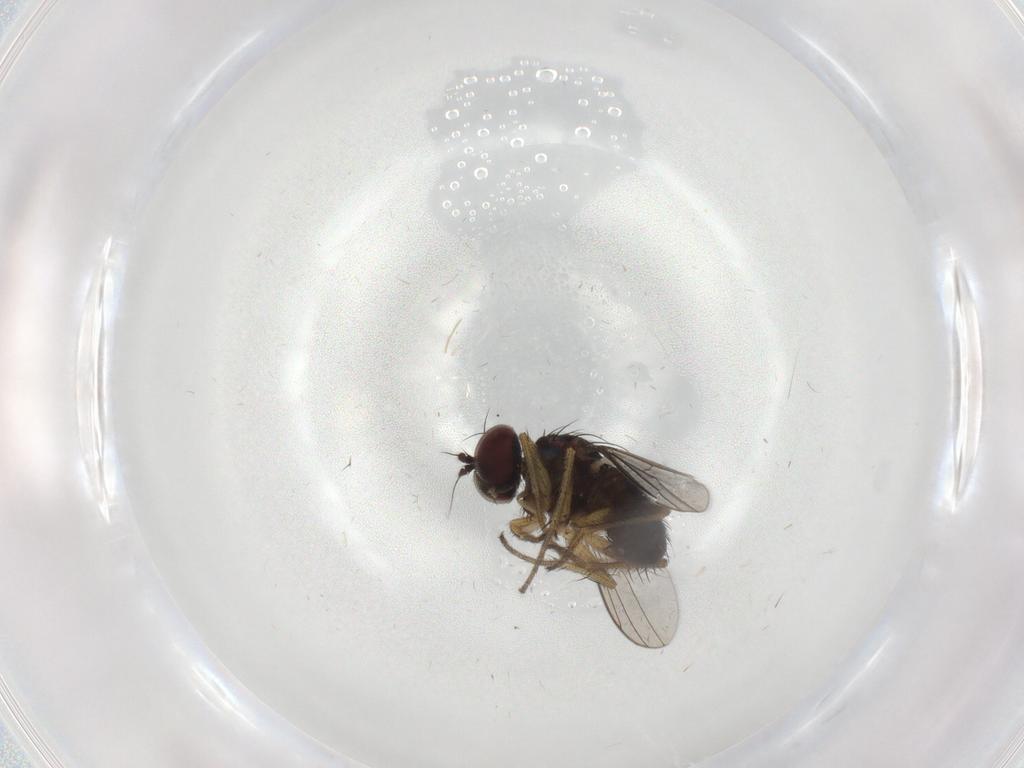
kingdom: Animalia
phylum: Arthropoda
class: Insecta
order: Diptera
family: Dolichopodidae
